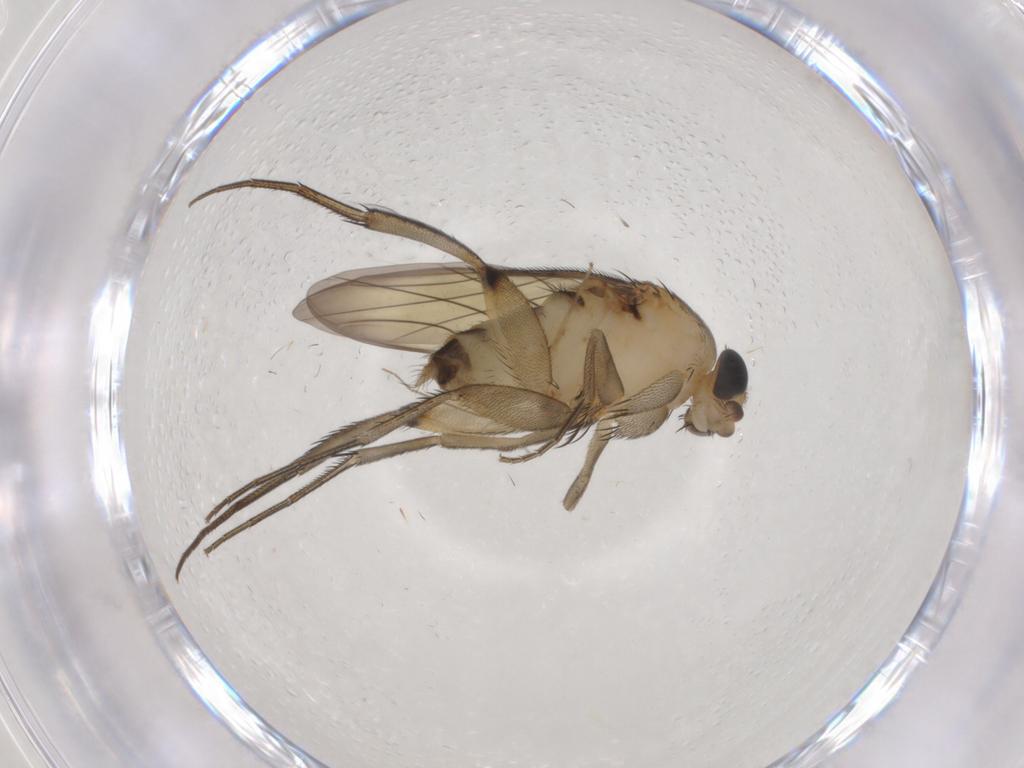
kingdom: Animalia
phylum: Arthropoda
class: Insecta
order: Diptera
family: Phoridae
